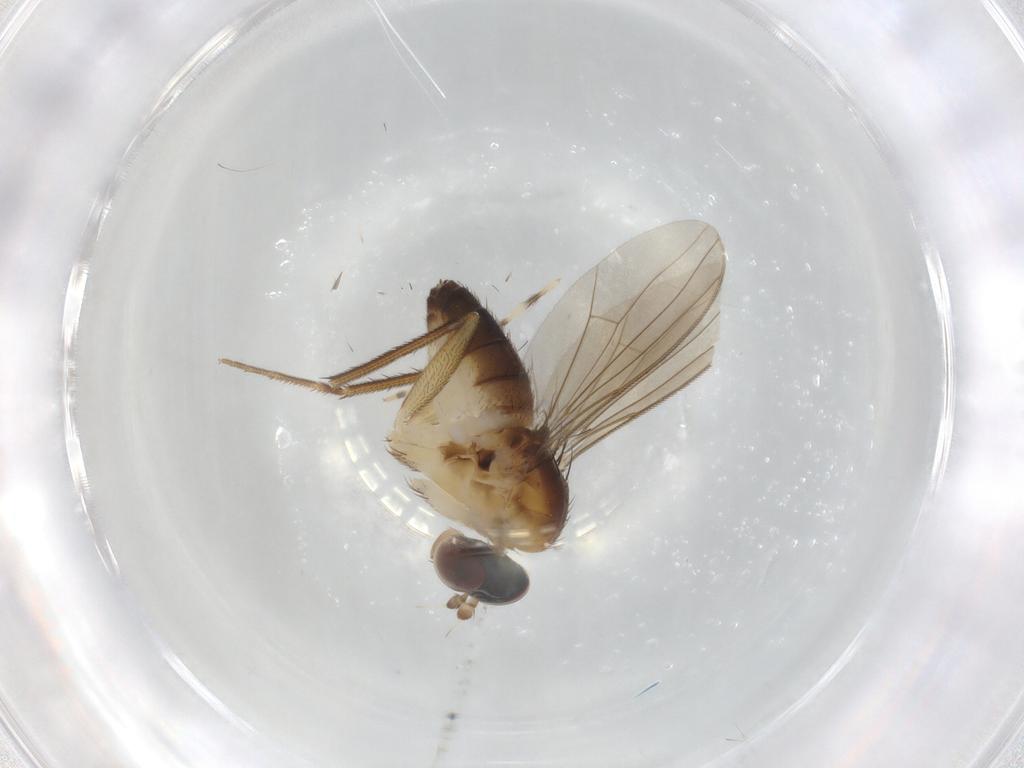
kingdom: Animalia
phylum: Arthropoda
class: Insecta
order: Diptera
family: Dolichopodidae
